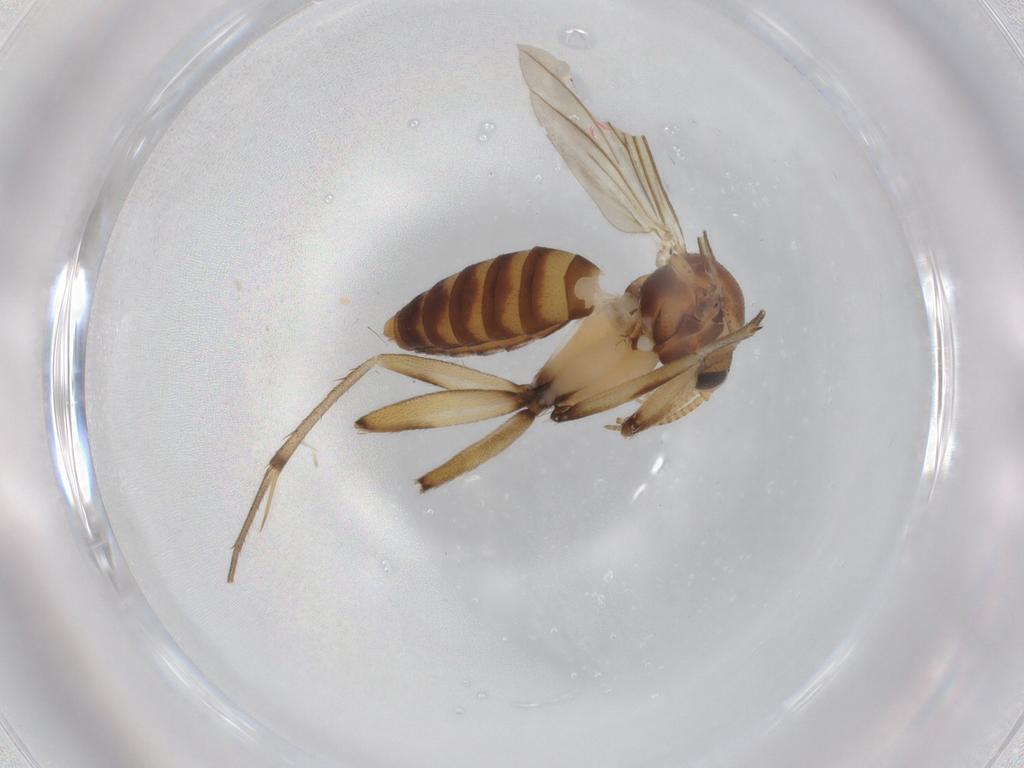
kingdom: Animalia
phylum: Arthropoda
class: Insecta
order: Diptera
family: Mycetophilidae
